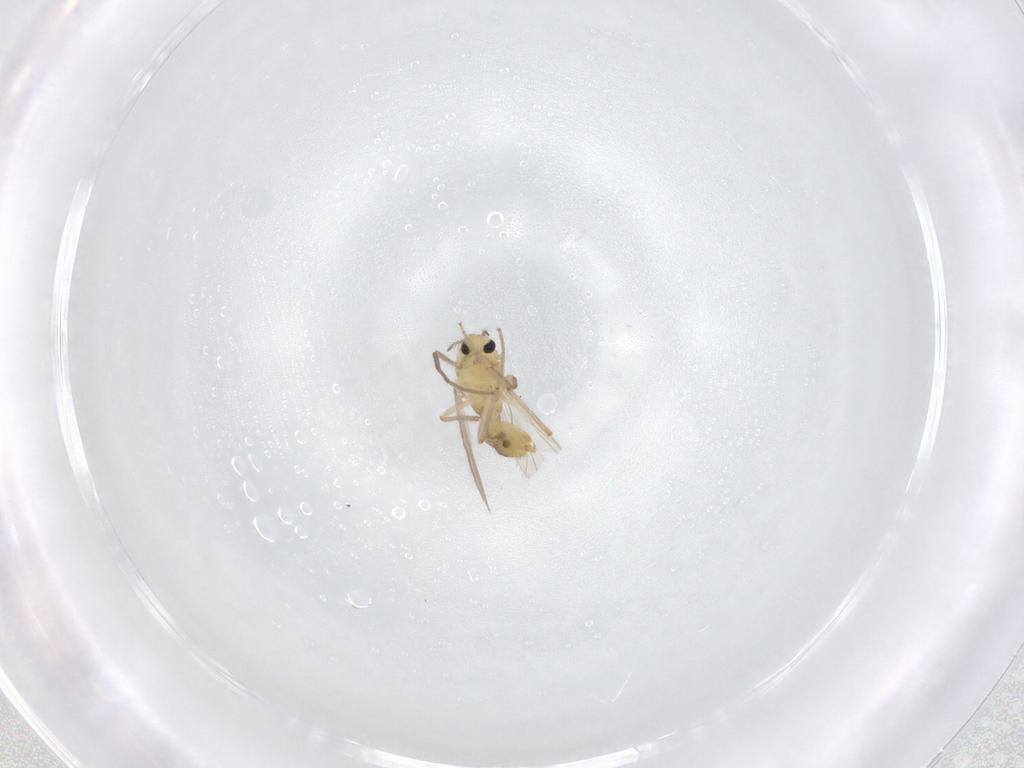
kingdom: Animalia
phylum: Arthropoda
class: Insecta
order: Diptera
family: Chironomidae
